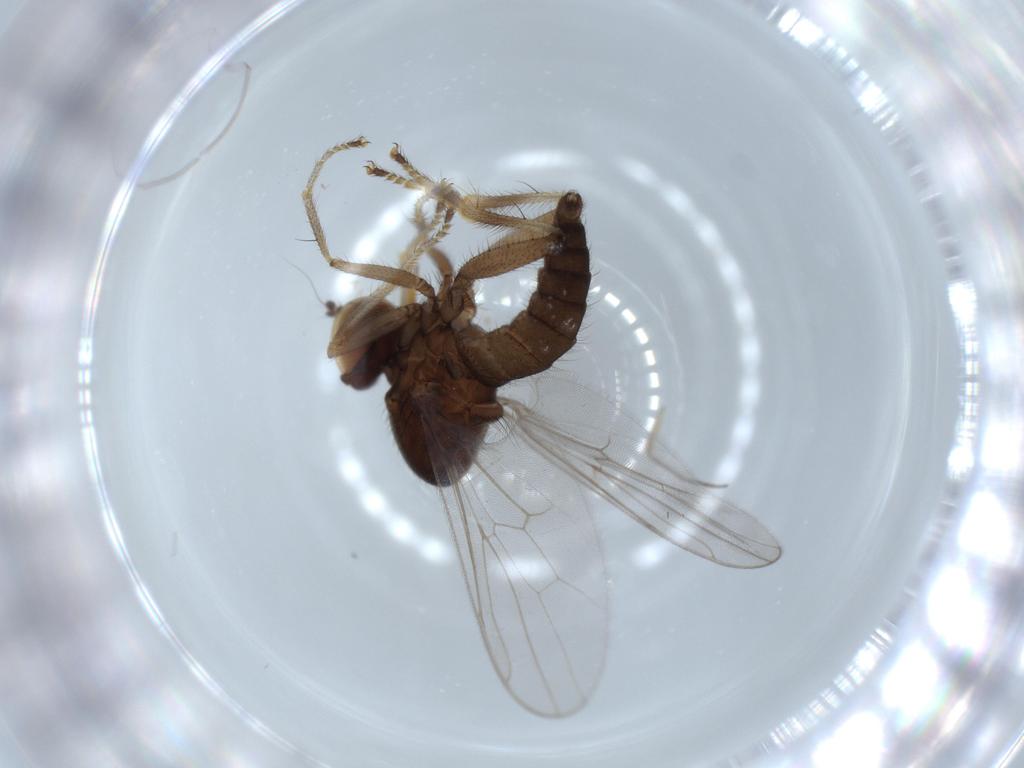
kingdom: Animalia
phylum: Arthropoda
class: Insecta
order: Diptera
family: Hybotidae
